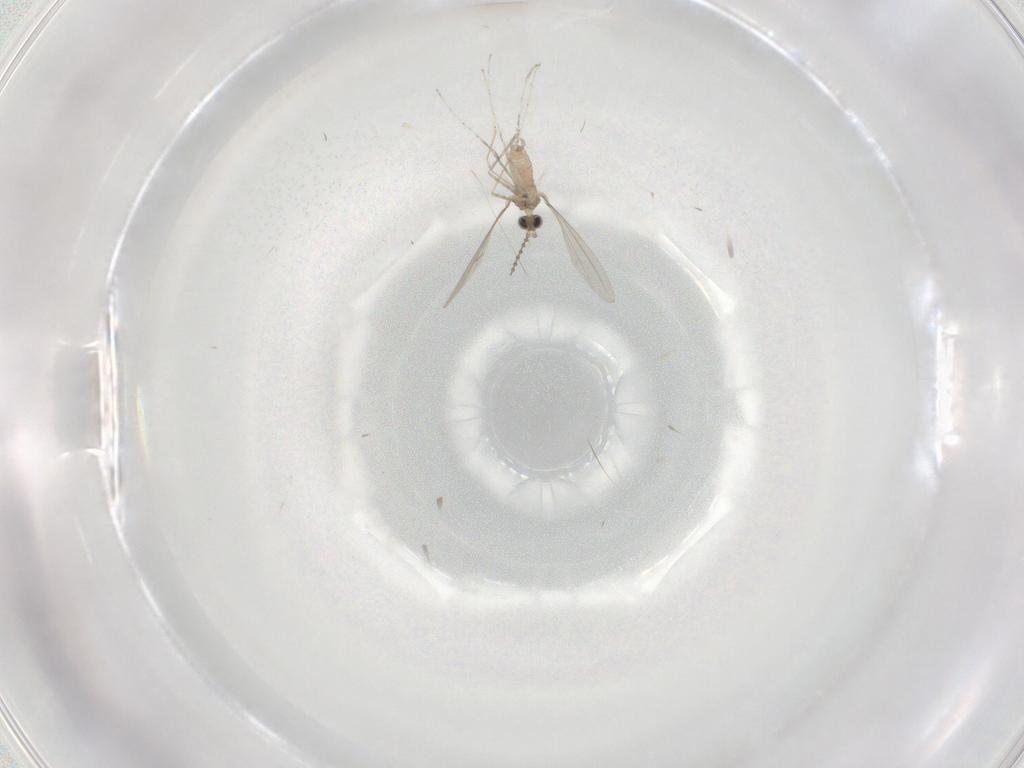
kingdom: Animalia
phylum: Arthropoda
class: Insecta
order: Diptera
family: Cecidomyiidae
